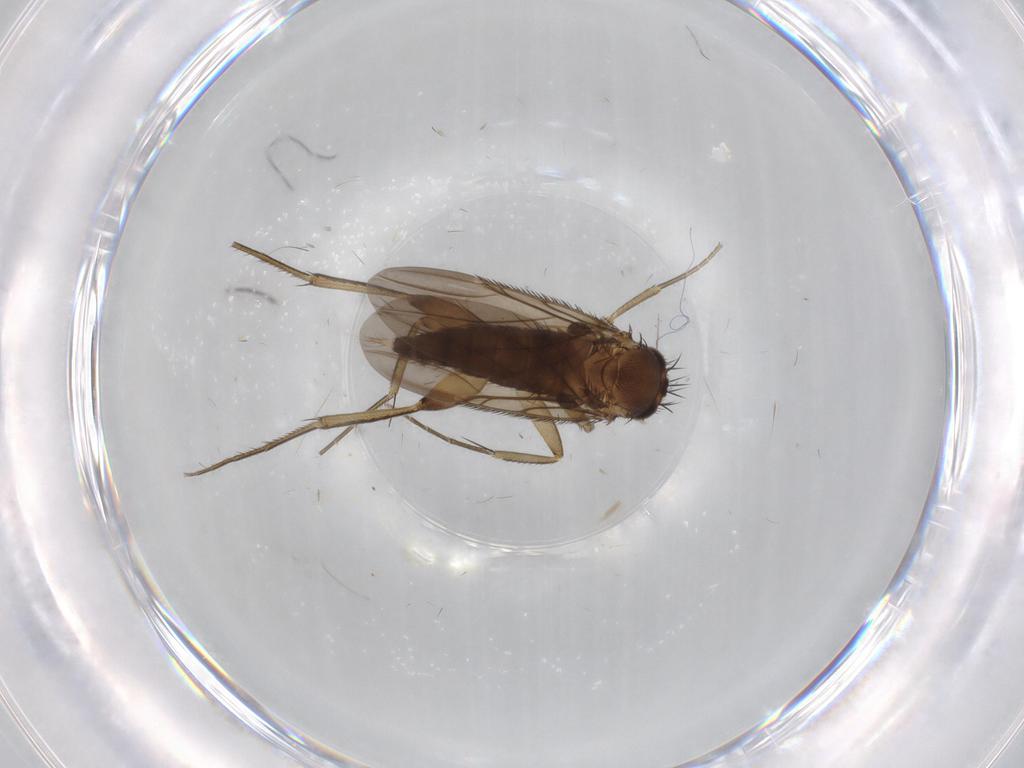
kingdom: Animalia
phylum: Arthropoda
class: Insecta
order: Diptera
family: Phoridae
